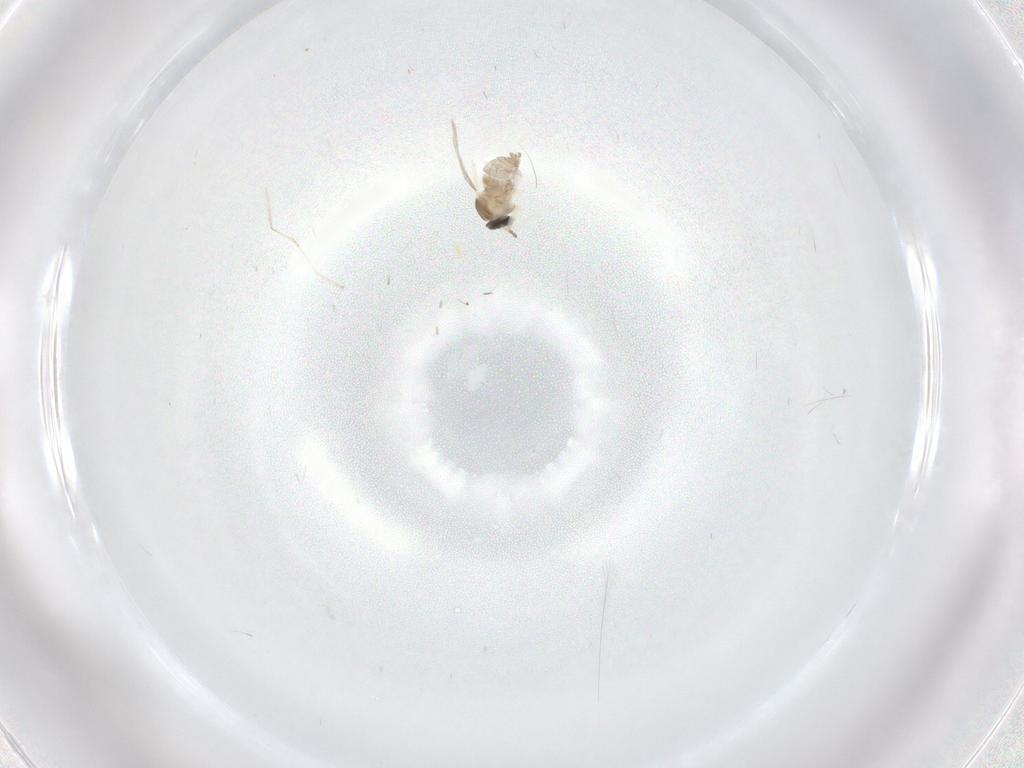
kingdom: Animalia
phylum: Arthropoda
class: Insecta
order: Diptera
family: Cecidomyiidae
